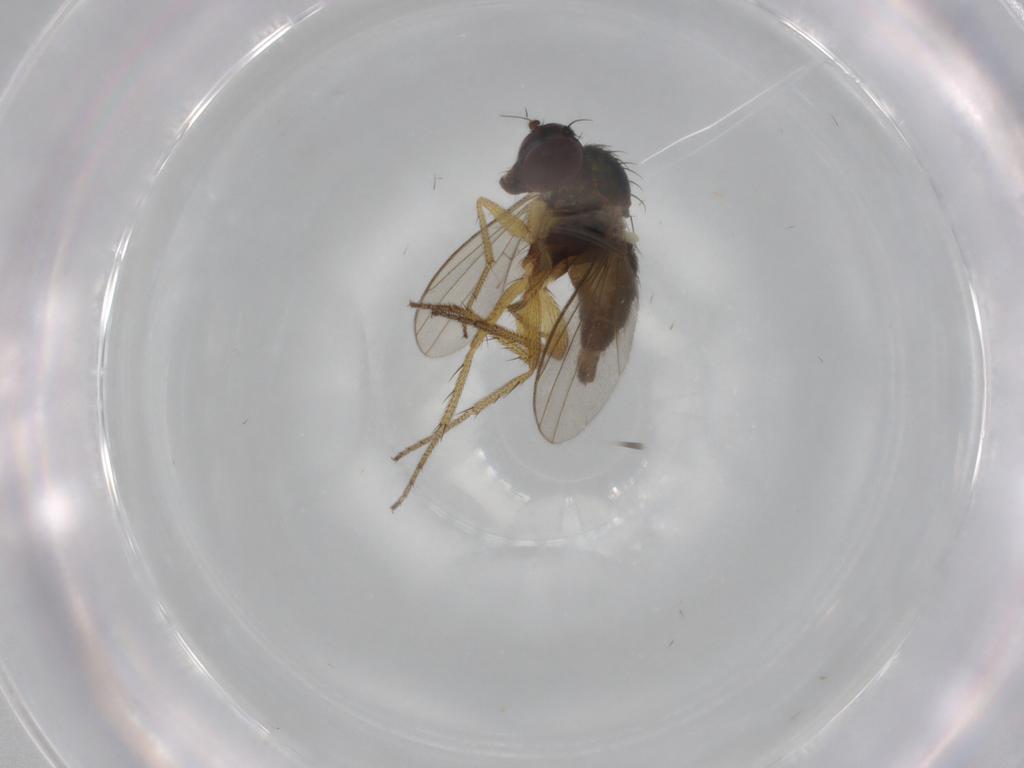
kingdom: Animalia
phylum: Arthropoda
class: Insecta
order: Diptera
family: Dolichopodidae
